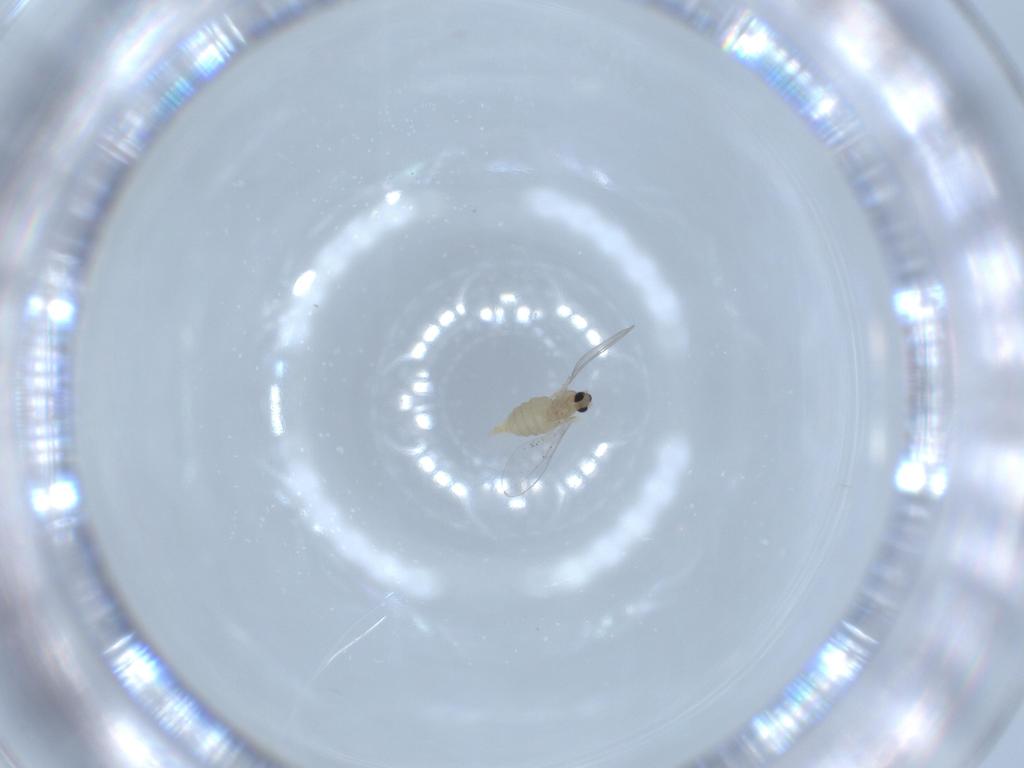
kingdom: Animalia
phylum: Arthropoda
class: Insecta
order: Diptera
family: Cecidomyiidae
